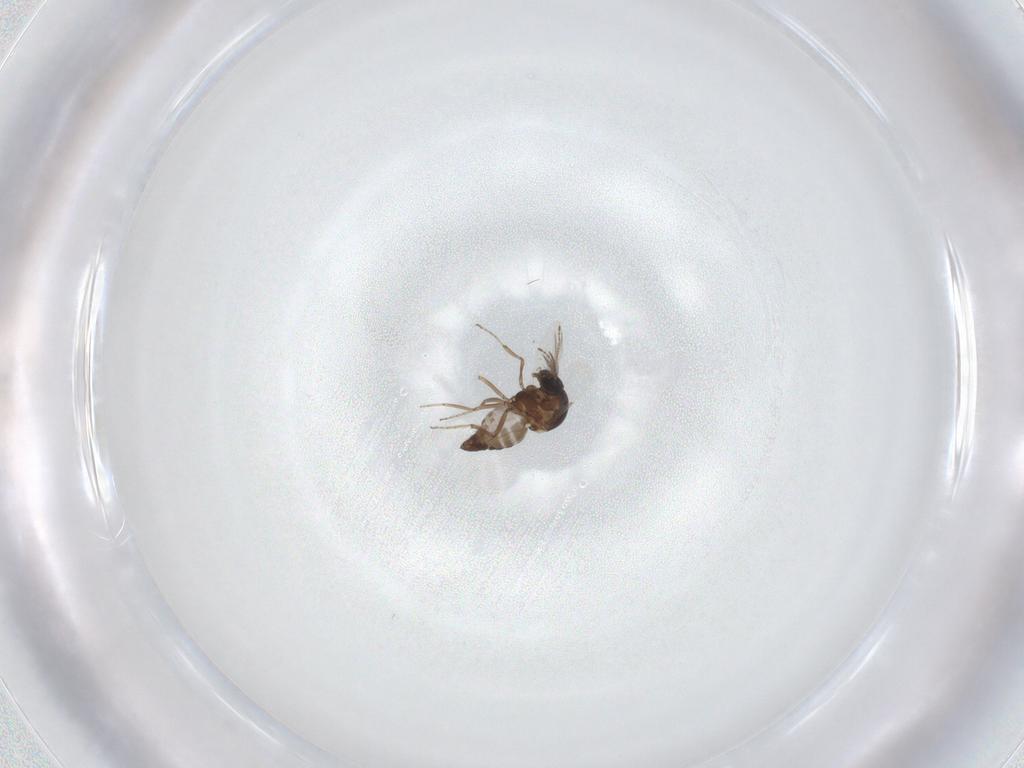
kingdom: Animalia
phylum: Arthropoda
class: Insecta
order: Diptera
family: Ceratopogonidae
